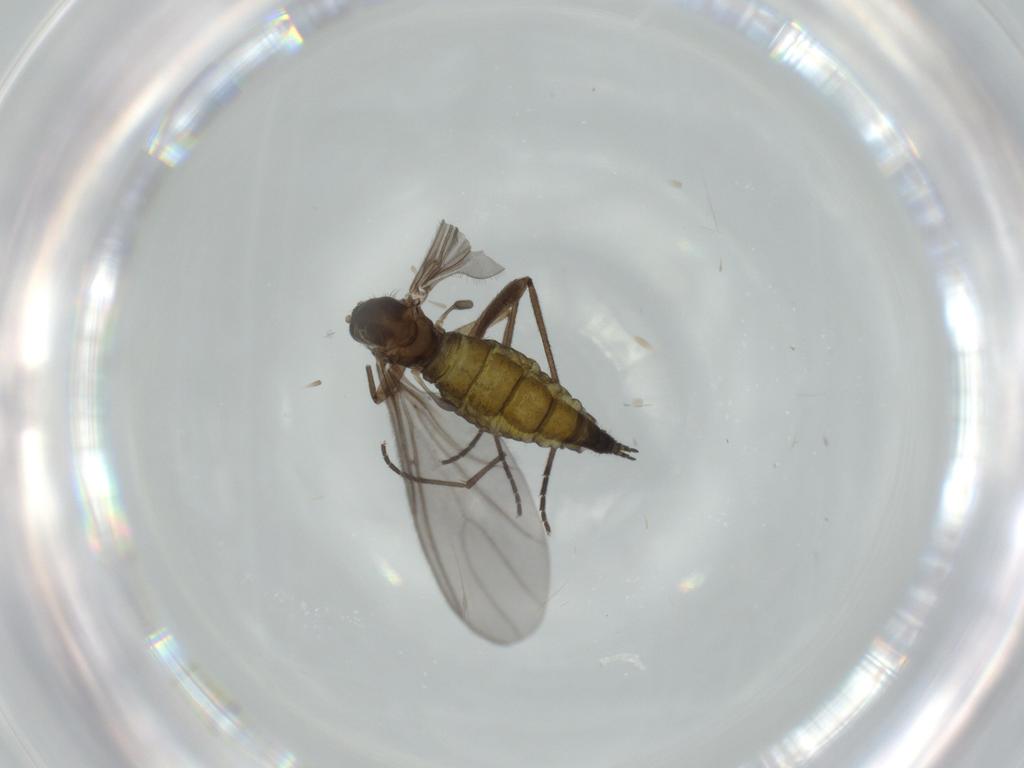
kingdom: Animalia
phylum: Arthropoda
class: Insecta
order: Diptera
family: Sciaridae
